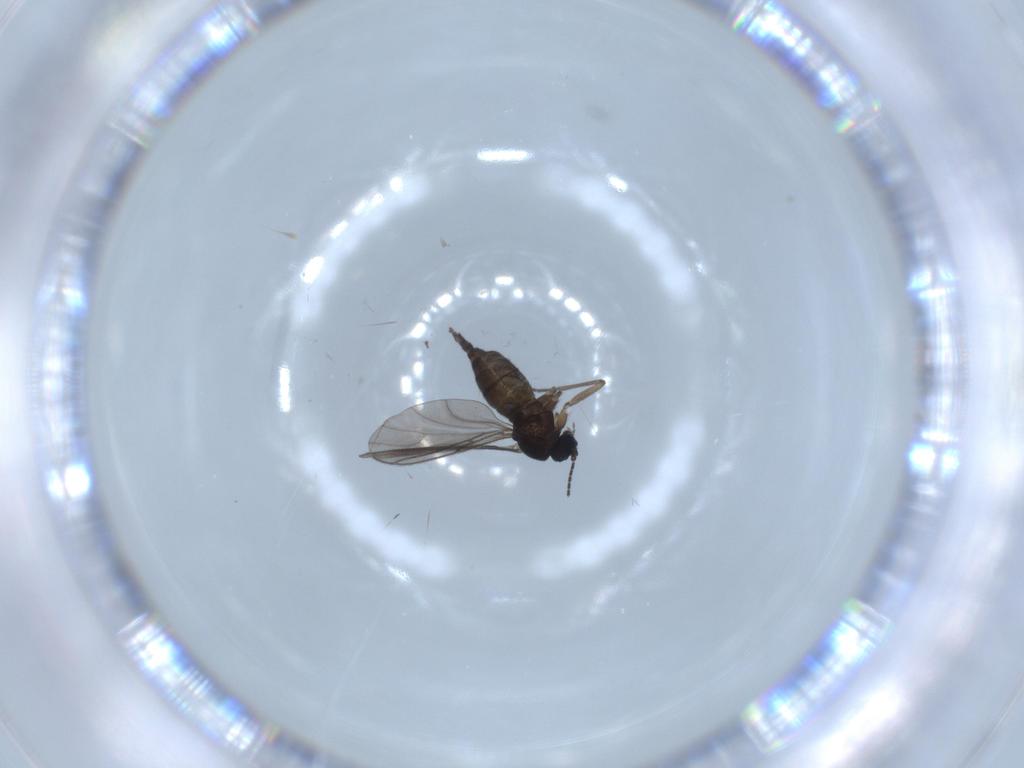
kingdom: Animalia
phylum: Arthropoda
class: Insecta
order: Diptera
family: Sciaridae
